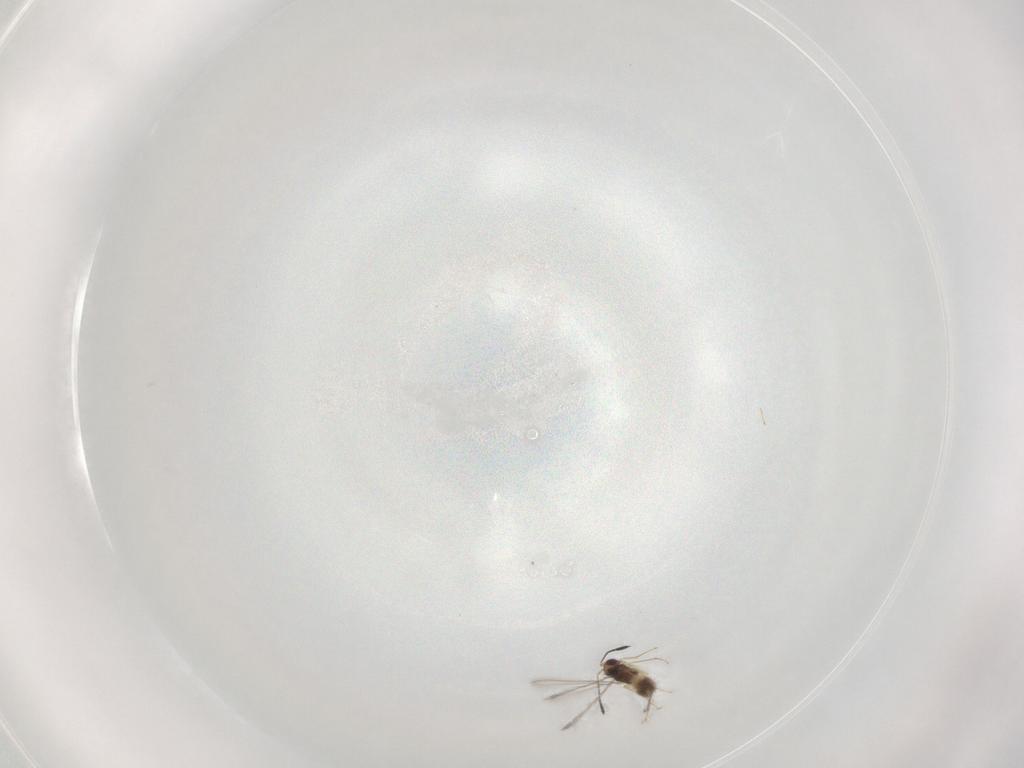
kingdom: Animalia
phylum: Arthropoda
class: Insecta
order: Hymenoptera
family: Mymaridae
